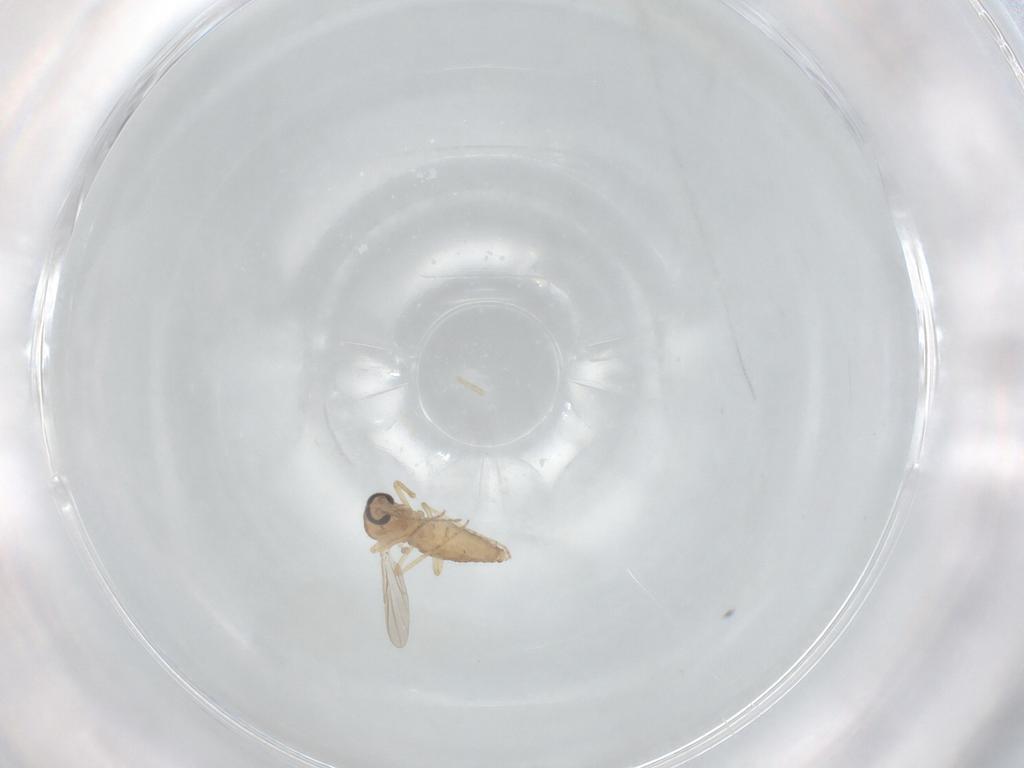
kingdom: Animalia
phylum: Arthropoda
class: Insecta
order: Diptera
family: Ceratopogonidae
